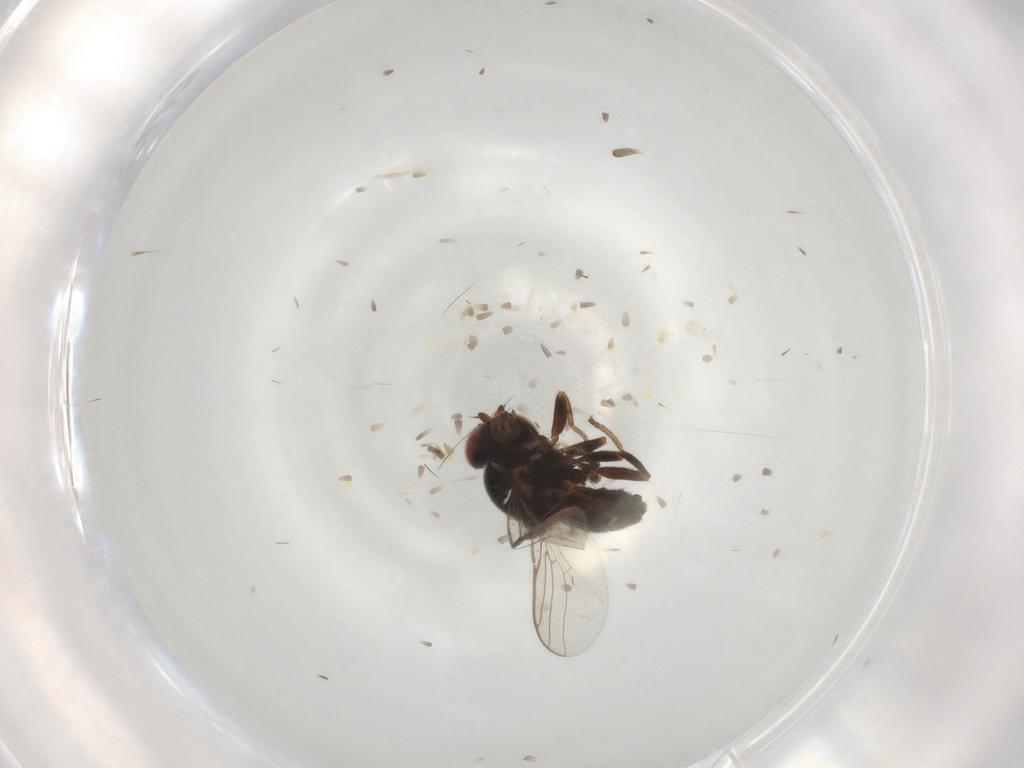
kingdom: Animalia
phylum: Arthropoda
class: Insecta
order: Diptera
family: Chloropidae
